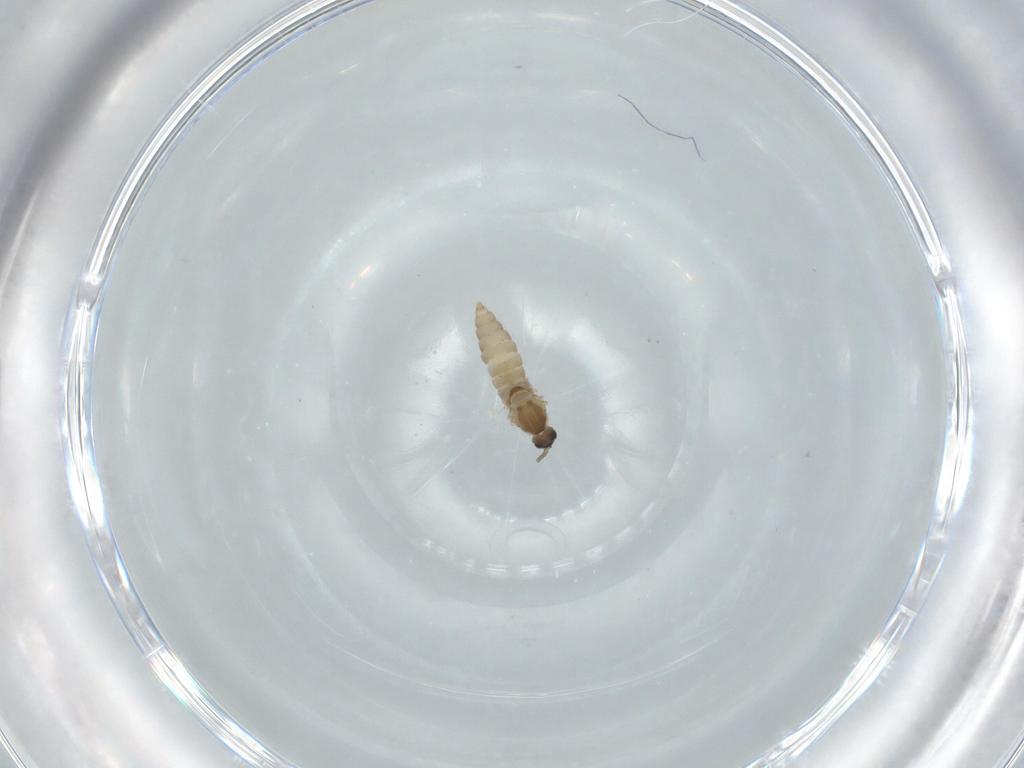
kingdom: Animalia
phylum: Arthropoda
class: Insecta
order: Diptera
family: Cecidomyiidae
